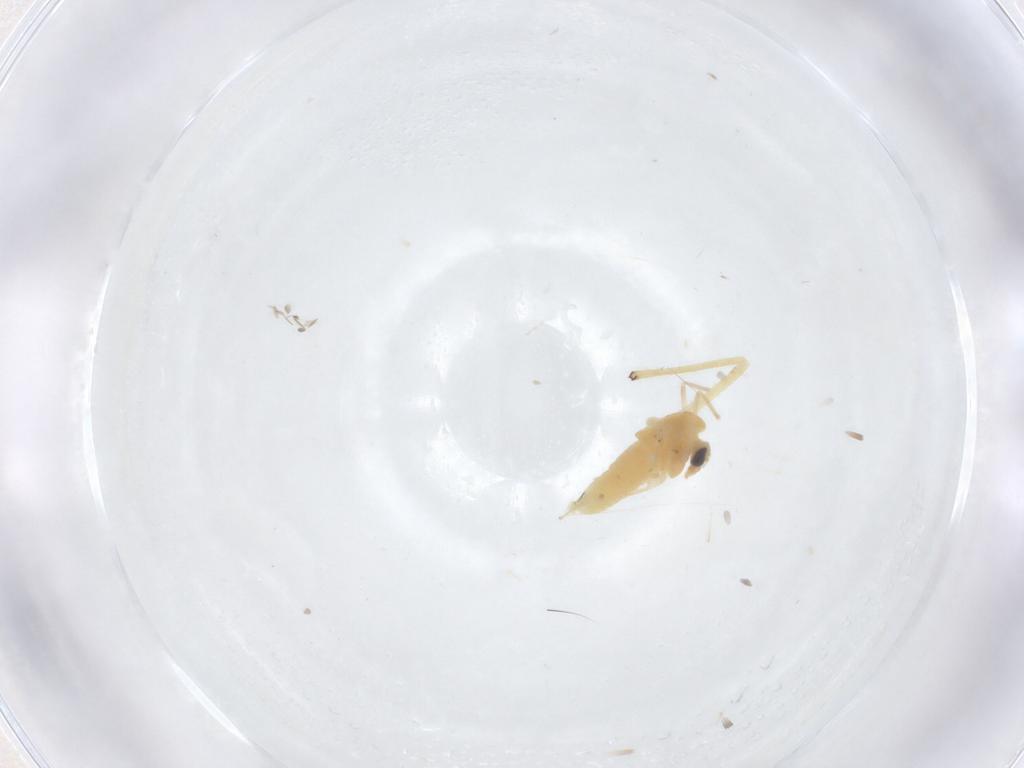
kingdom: Animalia
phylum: Arthropoda
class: Insecta
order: Diptera
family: Chironomidae
